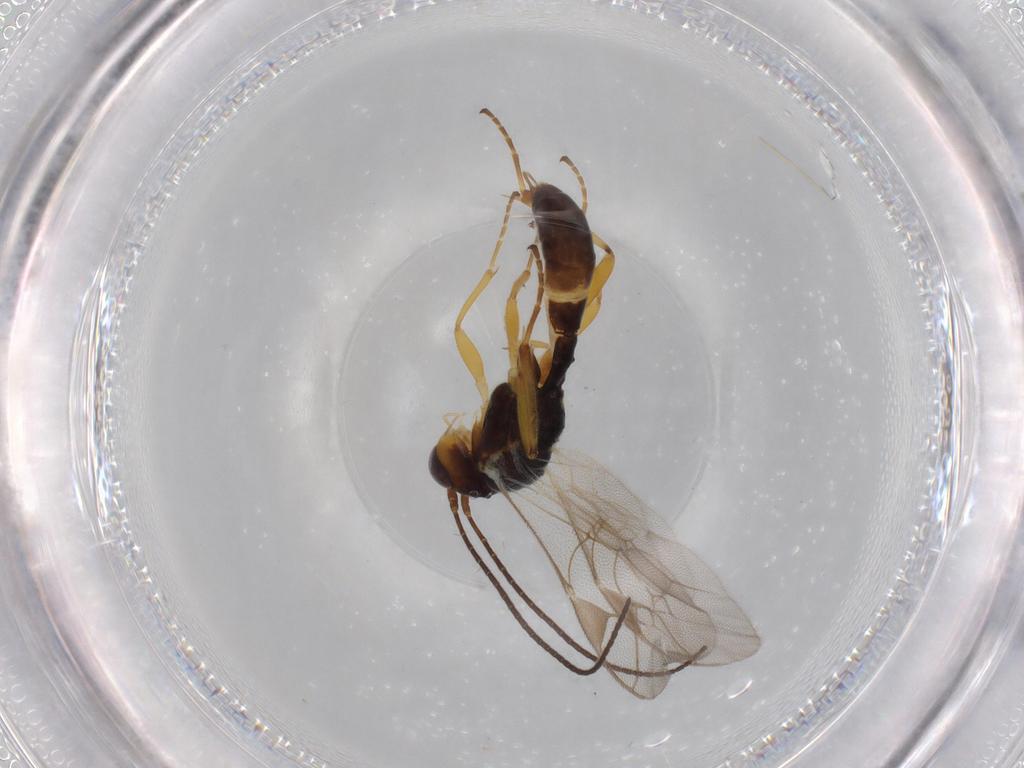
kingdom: Animalia
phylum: Arthropoda
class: Insecta
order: Hymenoptera
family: Ichneumonidae
